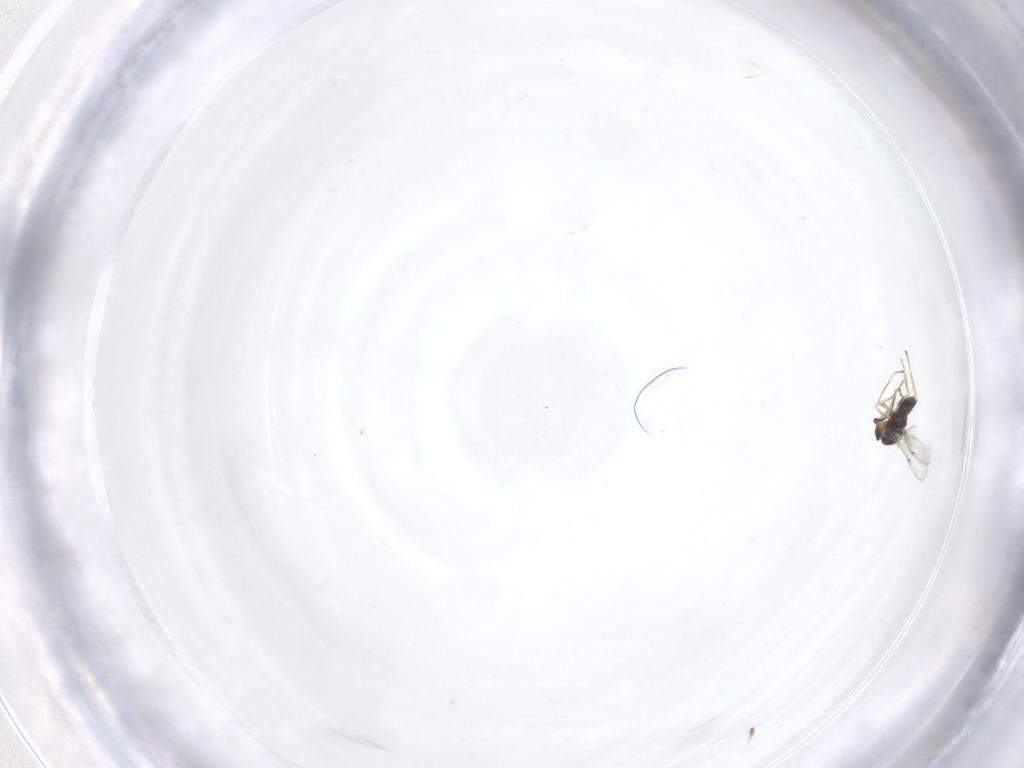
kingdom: Animalia
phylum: Arthropoda
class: Insecta
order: Hymenoptera
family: Eulophidae
